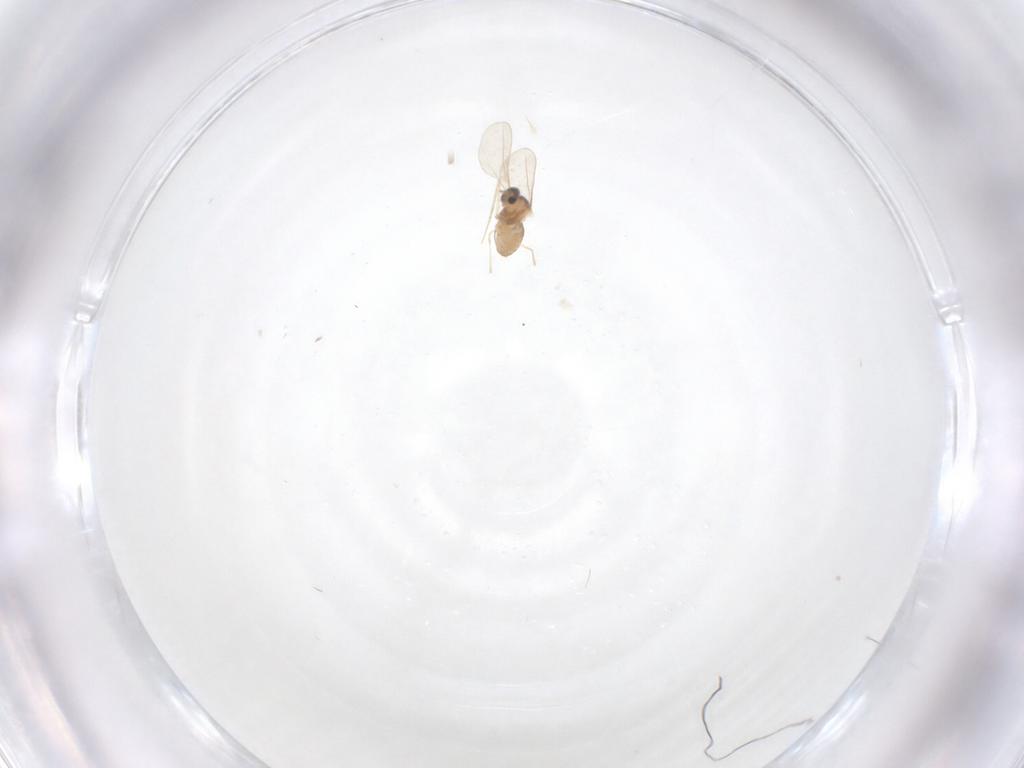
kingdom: Animalia
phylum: Arthropoda
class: Insecta
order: Diptera
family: Cecidomyiidae
